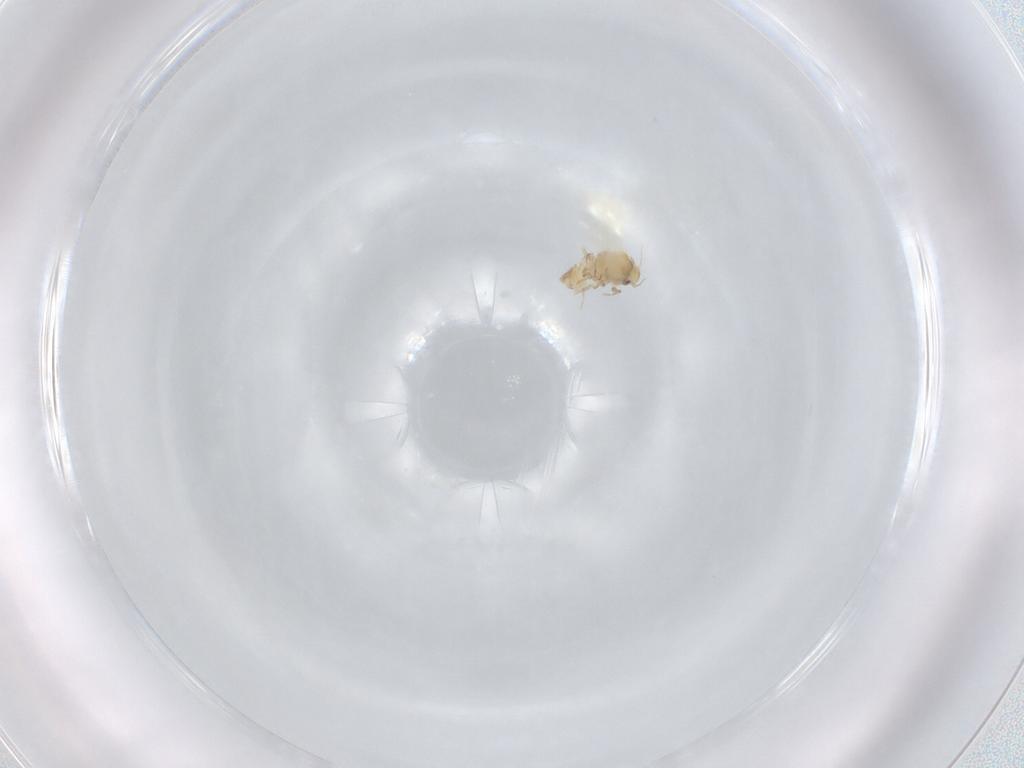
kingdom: Animalia
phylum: Arthropoda
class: Insecta
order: Hemiptera
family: Aleyrodidae
